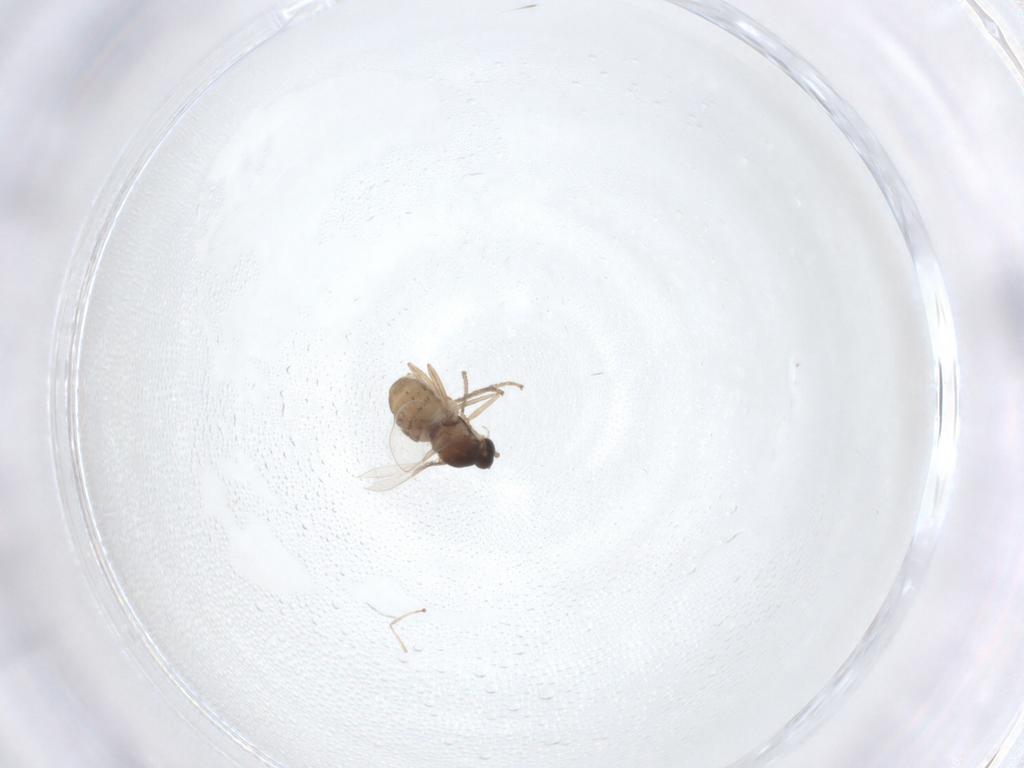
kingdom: Animalia
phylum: Arthropoda
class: Insecta
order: Diptera
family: Cecidomyiidae
